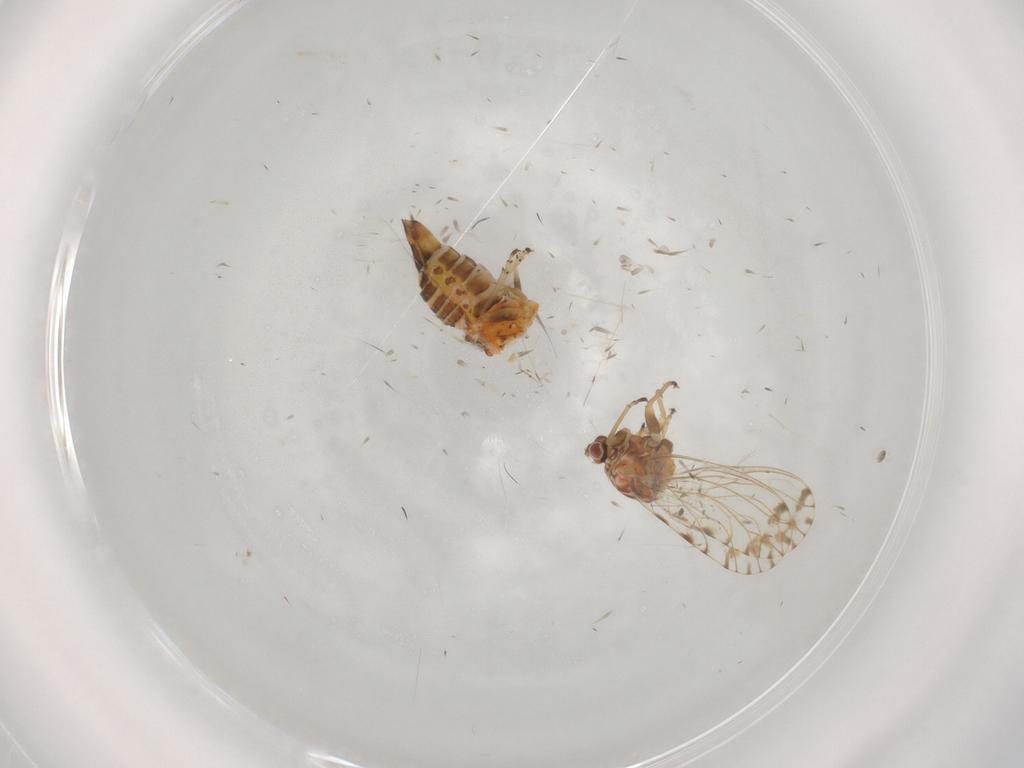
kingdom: Animalia
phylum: Arthropoda
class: Insecta
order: Hemiptera
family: Psyllidae
